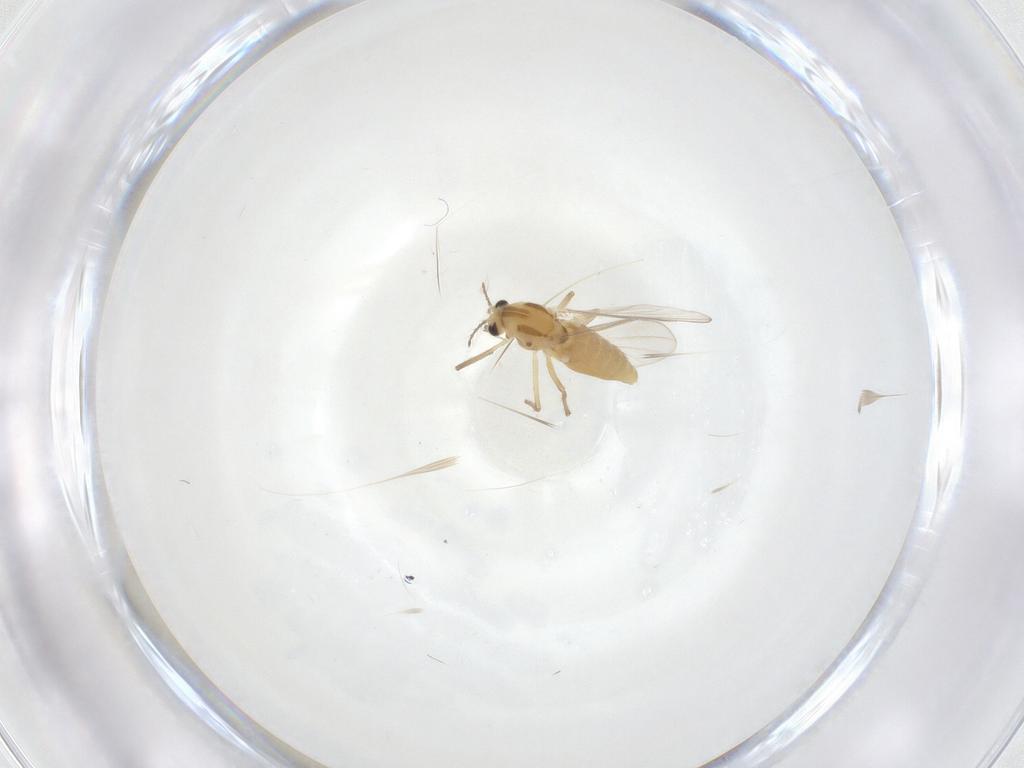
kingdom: Animalia
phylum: Arthropoda
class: Insecta
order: Diptera
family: Chironomidae
